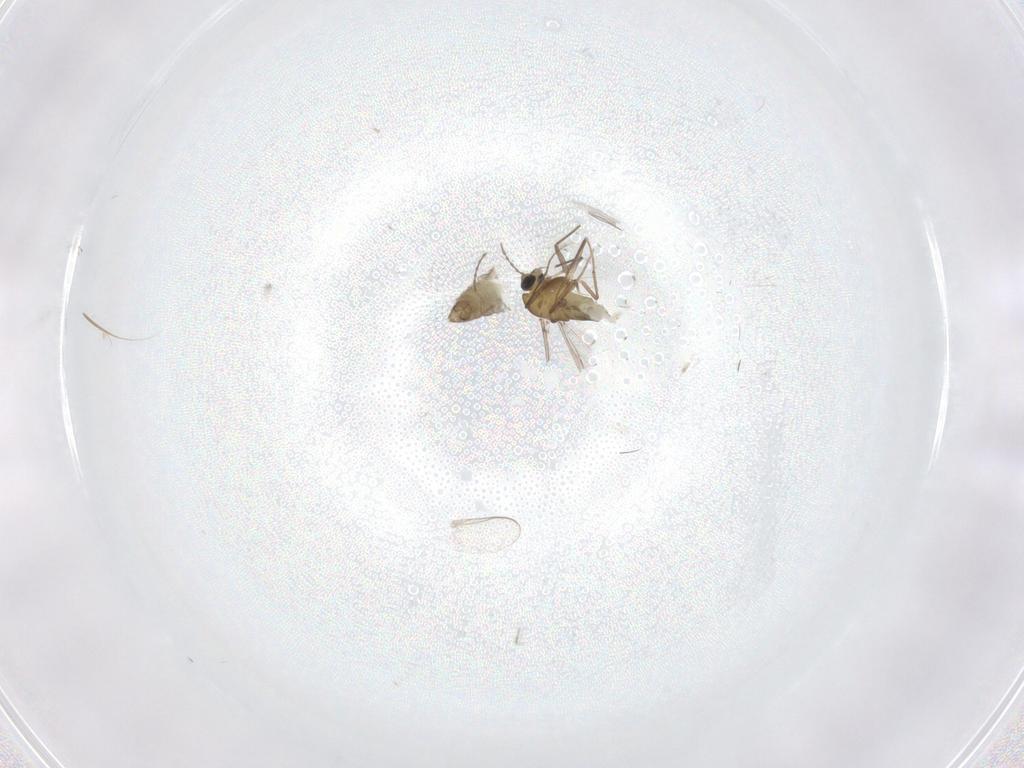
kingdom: Animalia
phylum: Arthropoda
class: Insecta
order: Diptera
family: Chironomidae
